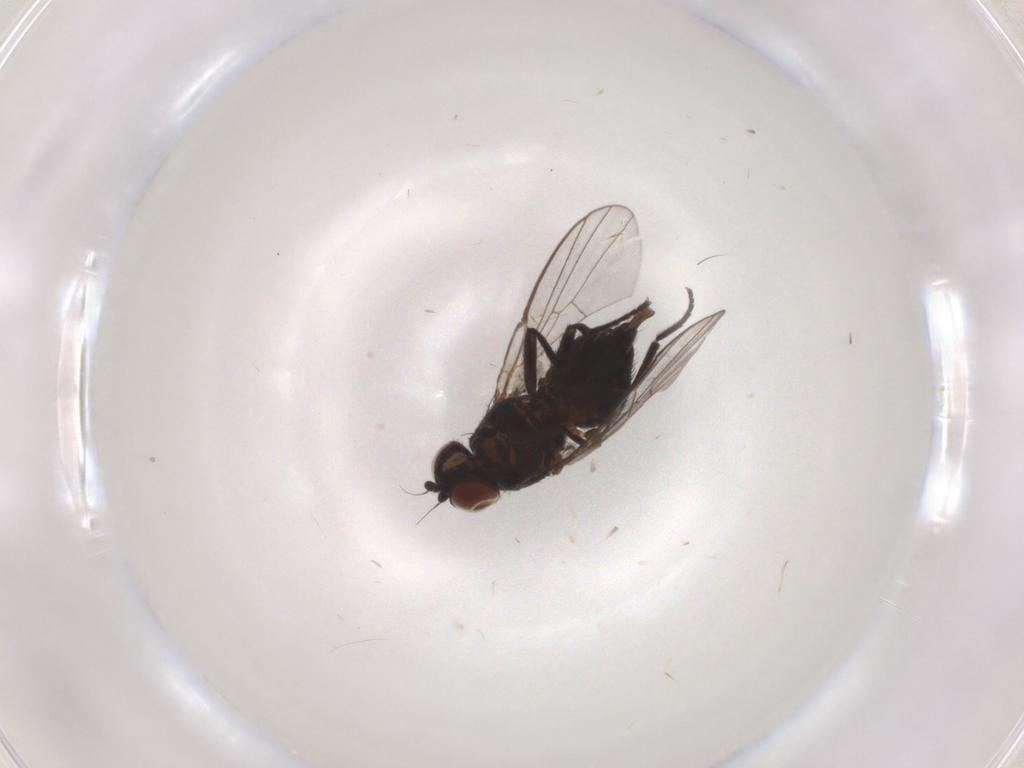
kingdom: Animalia
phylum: Arthropoda
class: Insecta
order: Diptera
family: Agromyzidae
